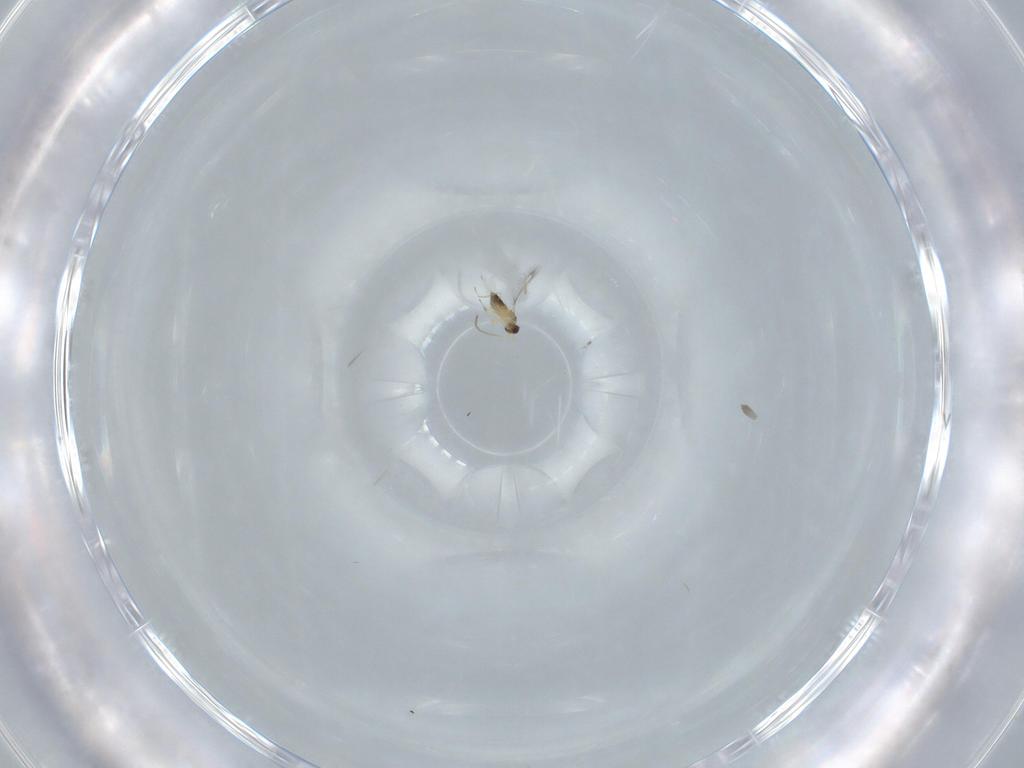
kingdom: Animalia
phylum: Arthropoda
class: Insecta
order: Hymenoptera
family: Mymaridae
